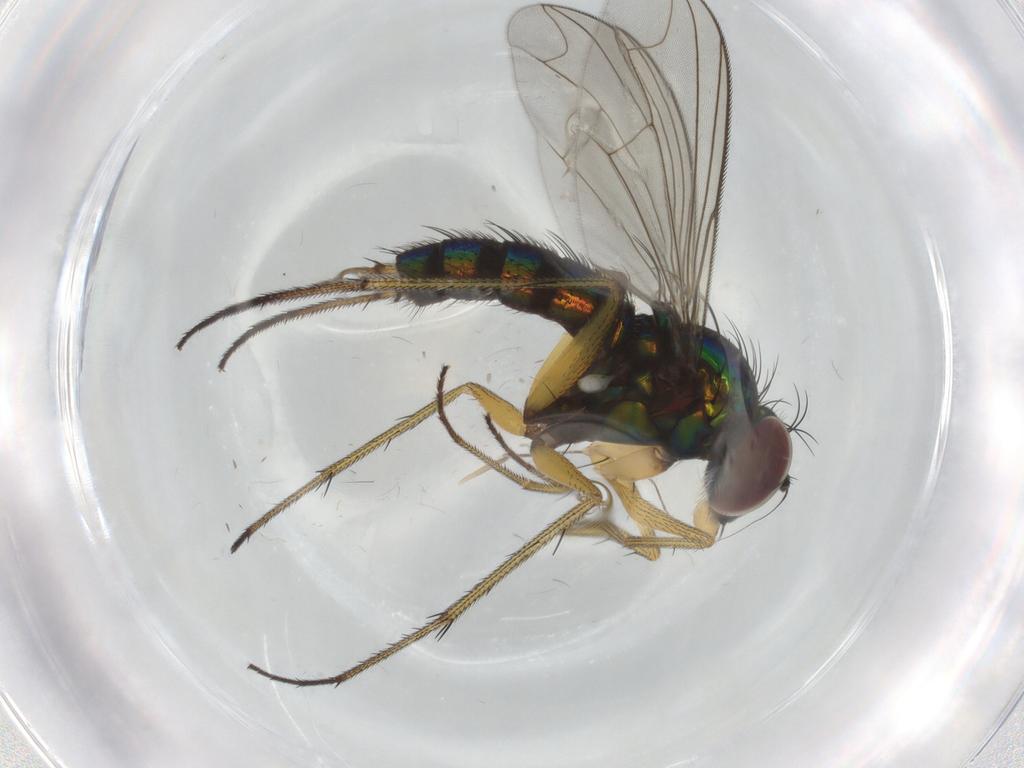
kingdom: Animalia
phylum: Arthropoda
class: Insecta
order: Diptera
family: Dolichopodidae
